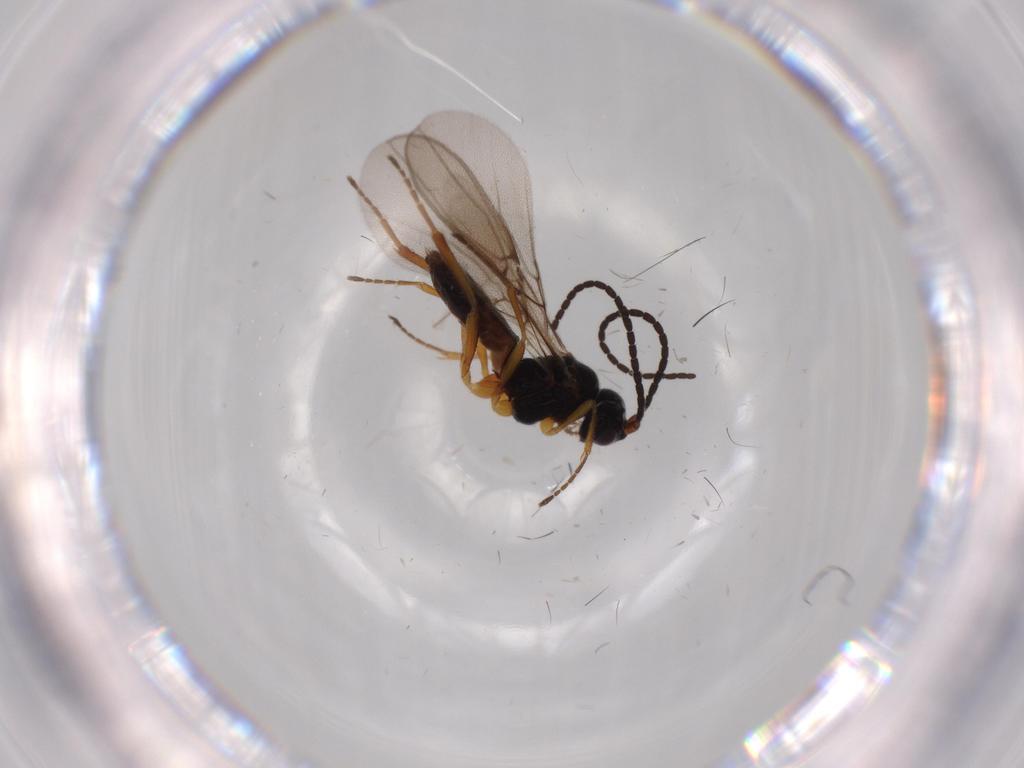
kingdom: Animalia
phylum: Arthropoda
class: Insecta
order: Hymenoptera
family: Braconidae
